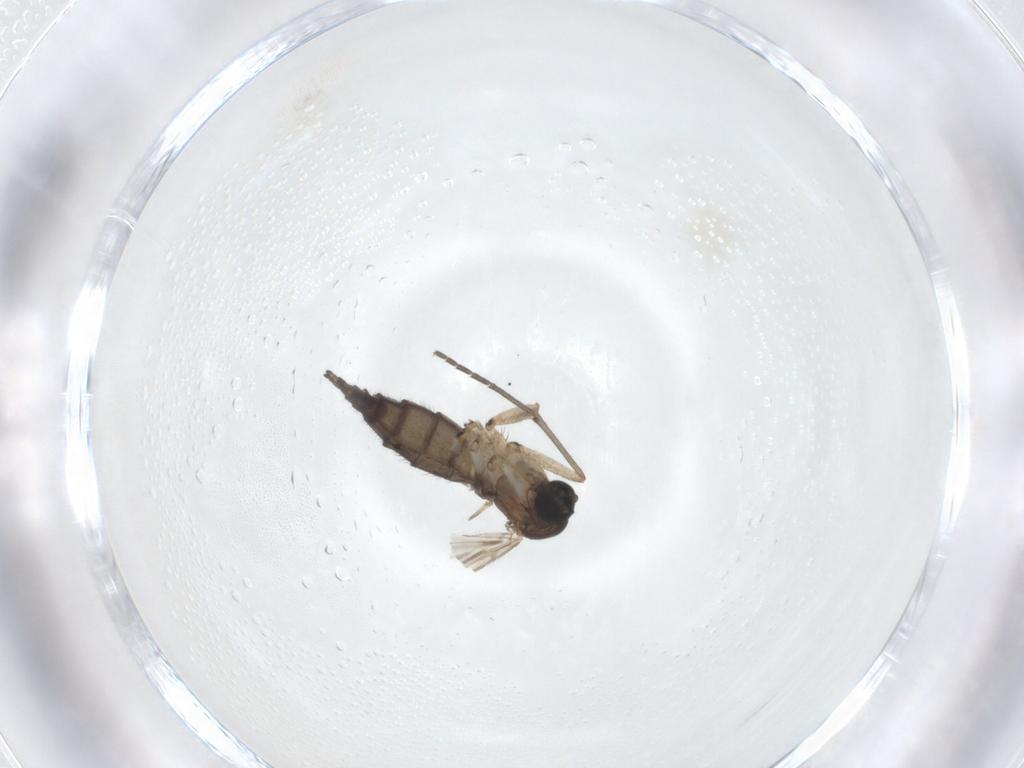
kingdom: Animalia
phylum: Arthropoda
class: Insecta
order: Diptera
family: Sciaridae
